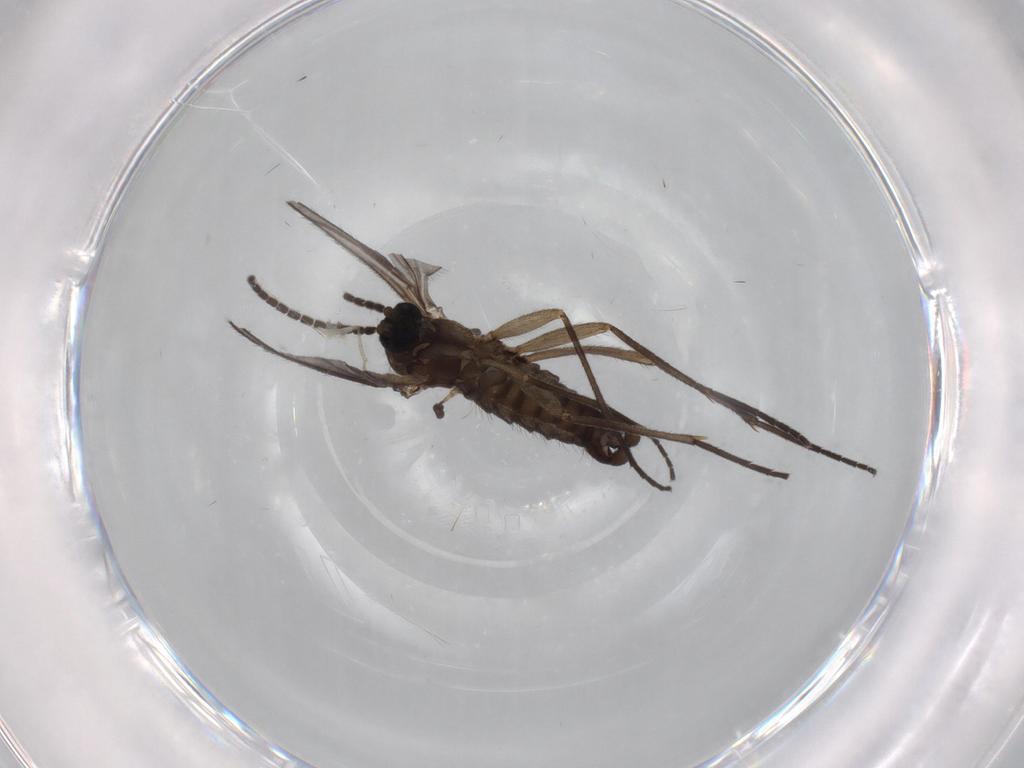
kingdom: Animalia
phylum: Arthropoda
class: Insecta
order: Diptera
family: Sciaridae
